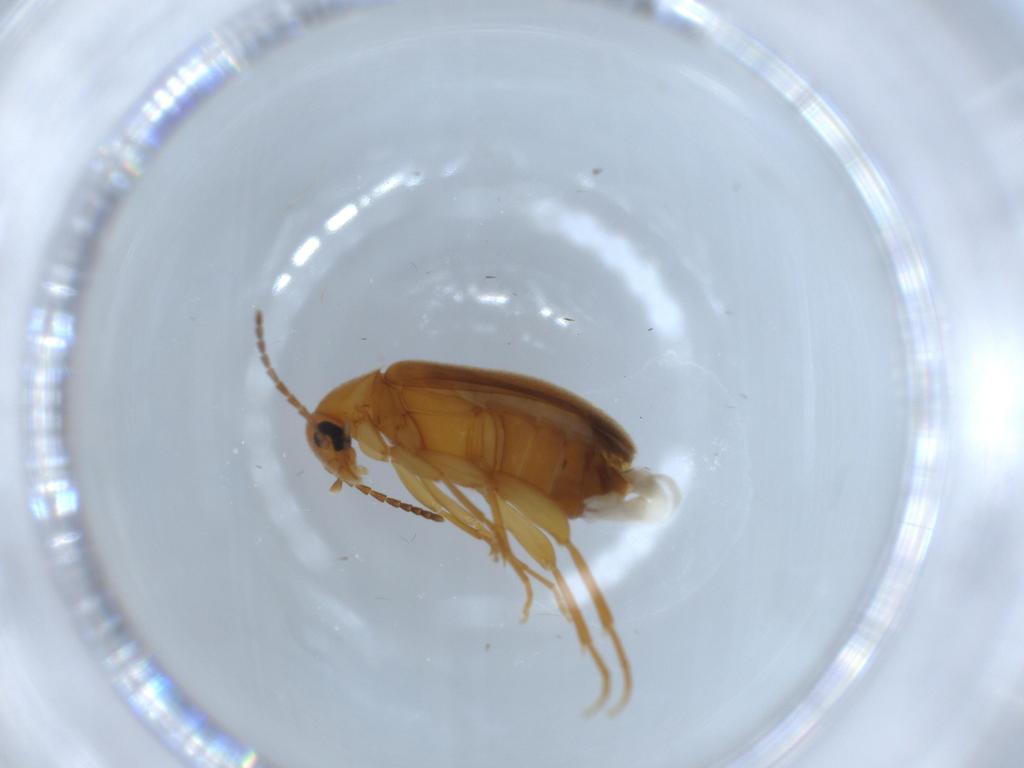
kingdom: Animalia
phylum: Arthropoda
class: Insecta
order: Coleoptera
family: Scraptiidae
